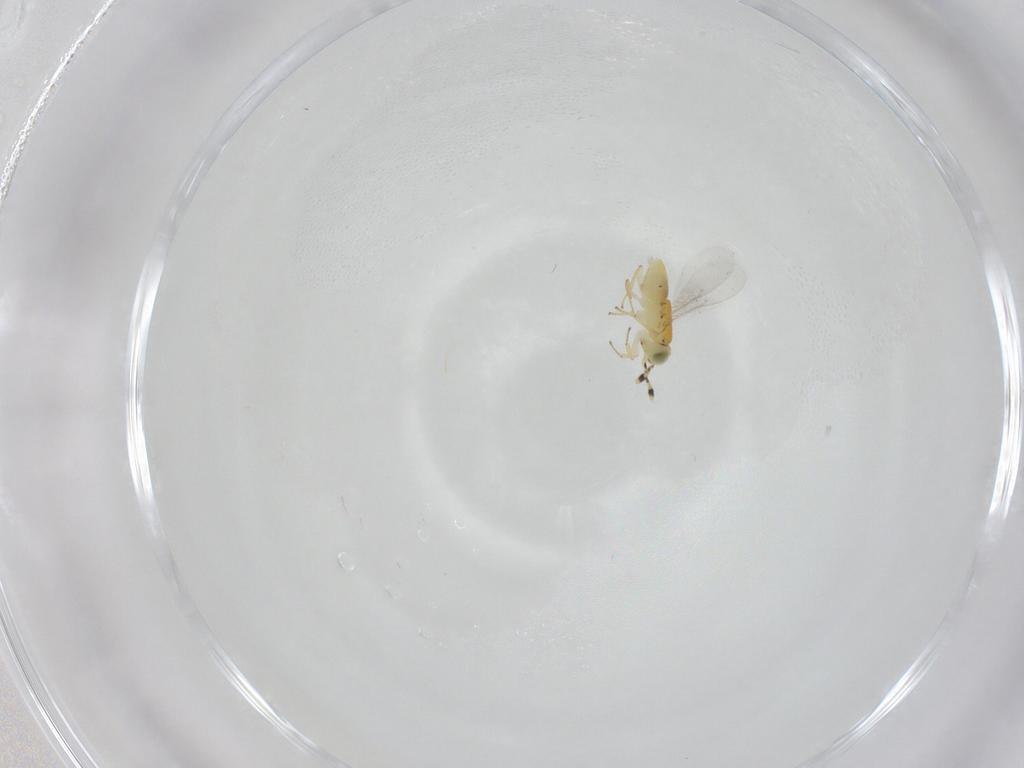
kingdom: Animalia
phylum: Arthropoda
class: Insecta
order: Hymenoptera
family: Encyrtidae
